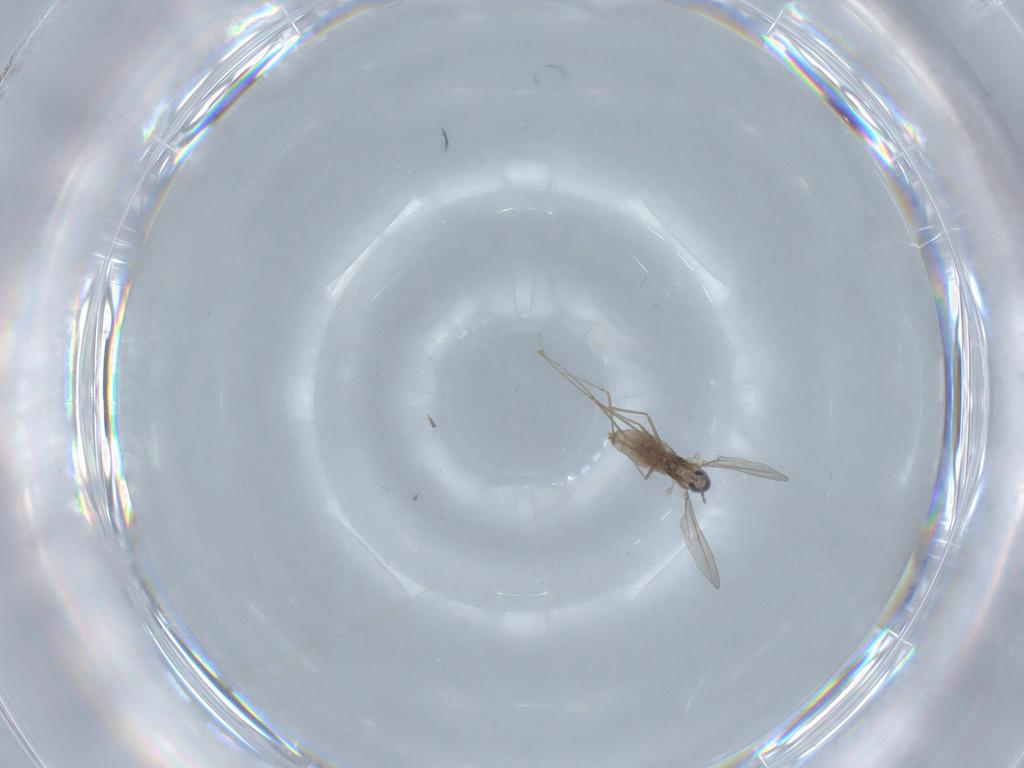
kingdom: Animalia
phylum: Arthropoda
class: Insecta
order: Diptera
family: Cecidomyiidae
